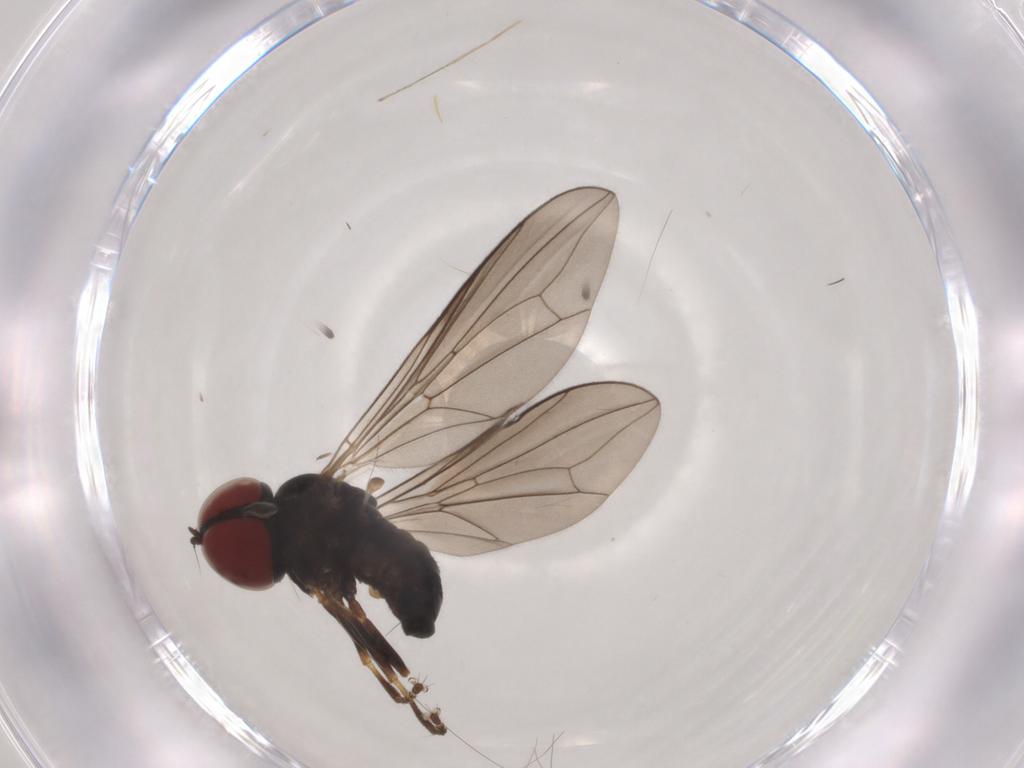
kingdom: Animalia
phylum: Arthropoda
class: Insecta
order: Diptera
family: Pipunculidae
